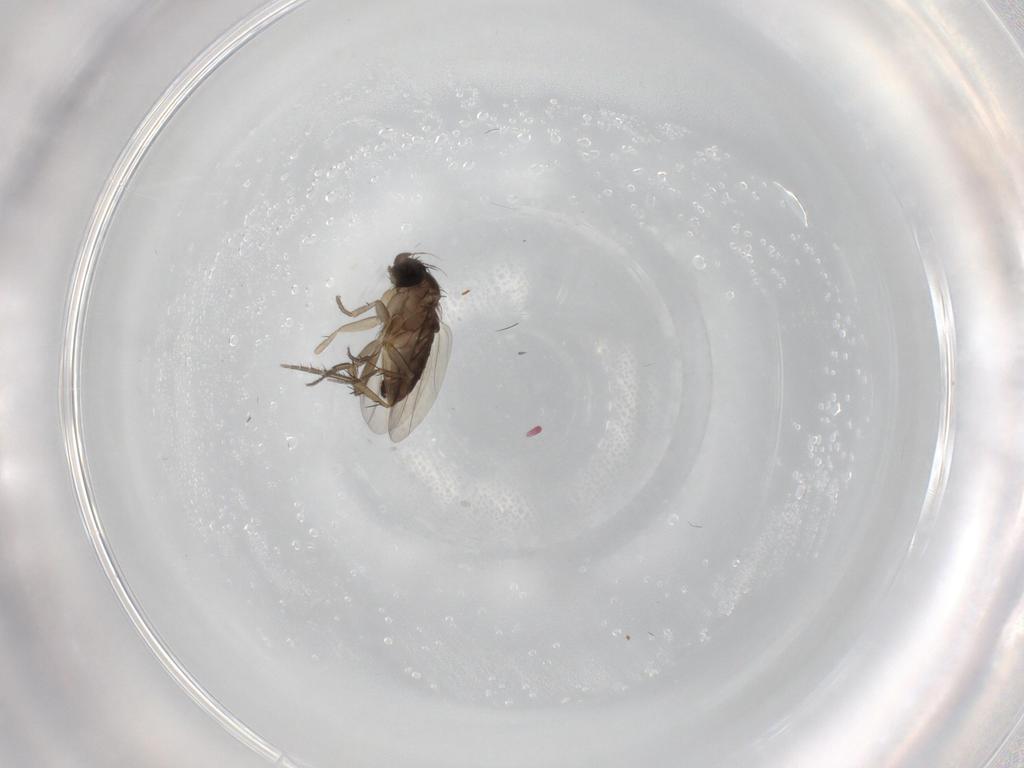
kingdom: Animalia
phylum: Arthropoda
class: Insecta
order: Diptera
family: Phoridae
